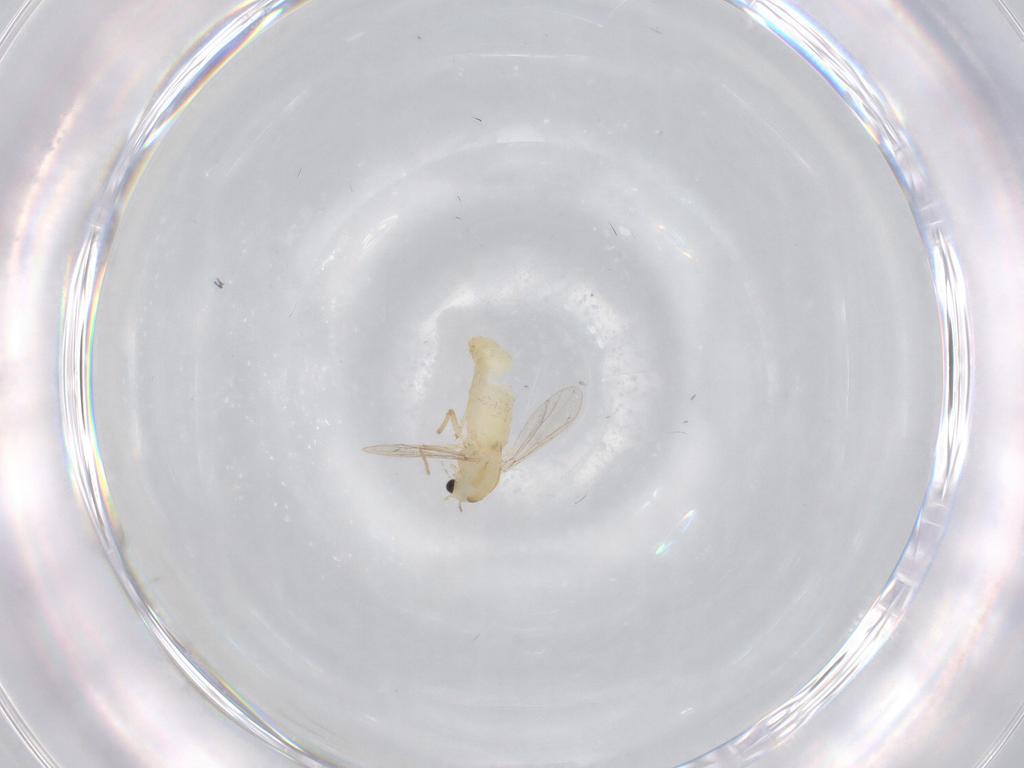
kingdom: Animalia
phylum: Arthropoda
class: Insecta
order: Diptera
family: Chironomidae
